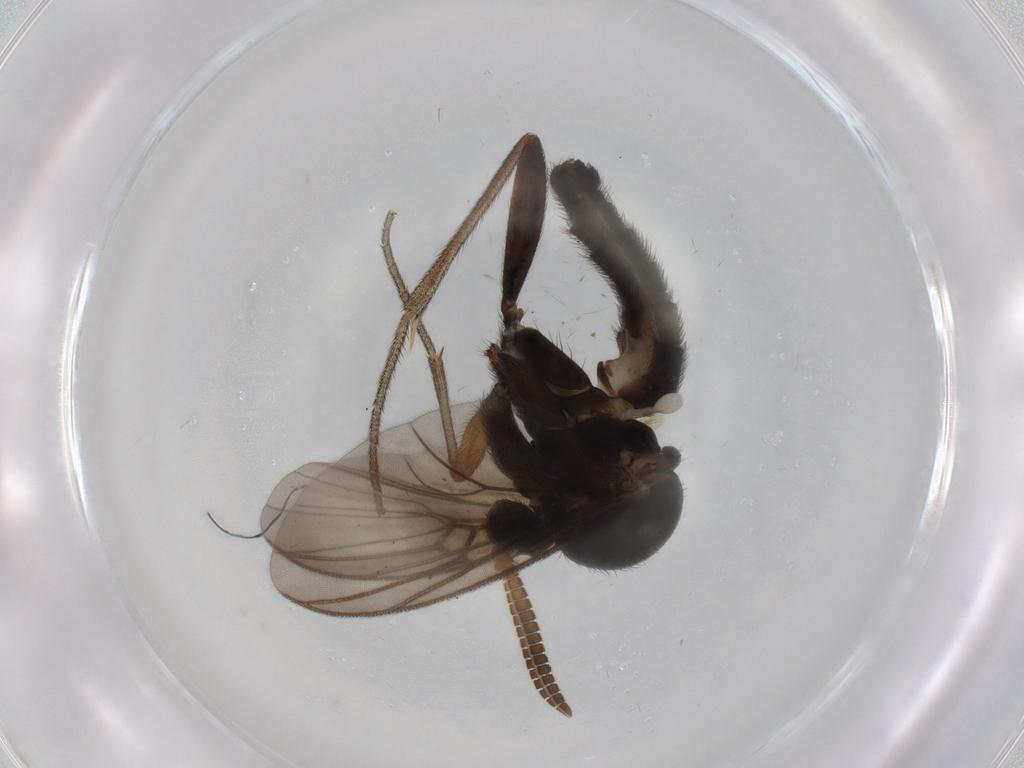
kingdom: Animalia
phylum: Arthropoda
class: Insecta
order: Diptera
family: Mycetophilidae
